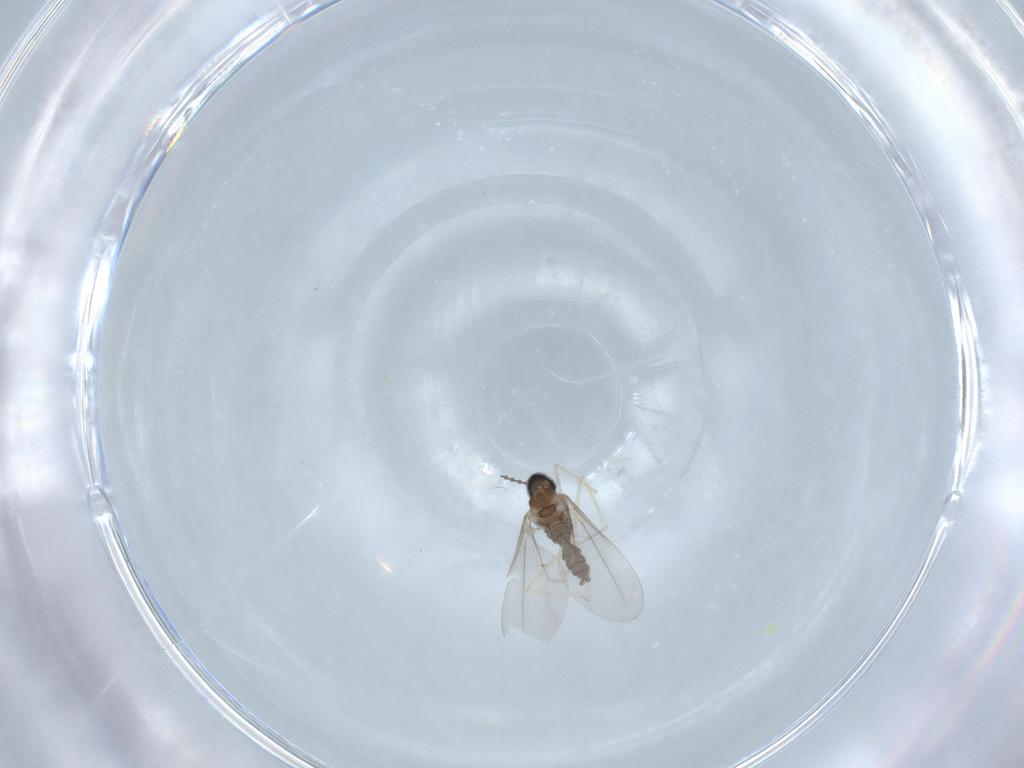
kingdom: Animalia
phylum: Arthropoda
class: Insecta
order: Diptera
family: Cecidomyiidae
